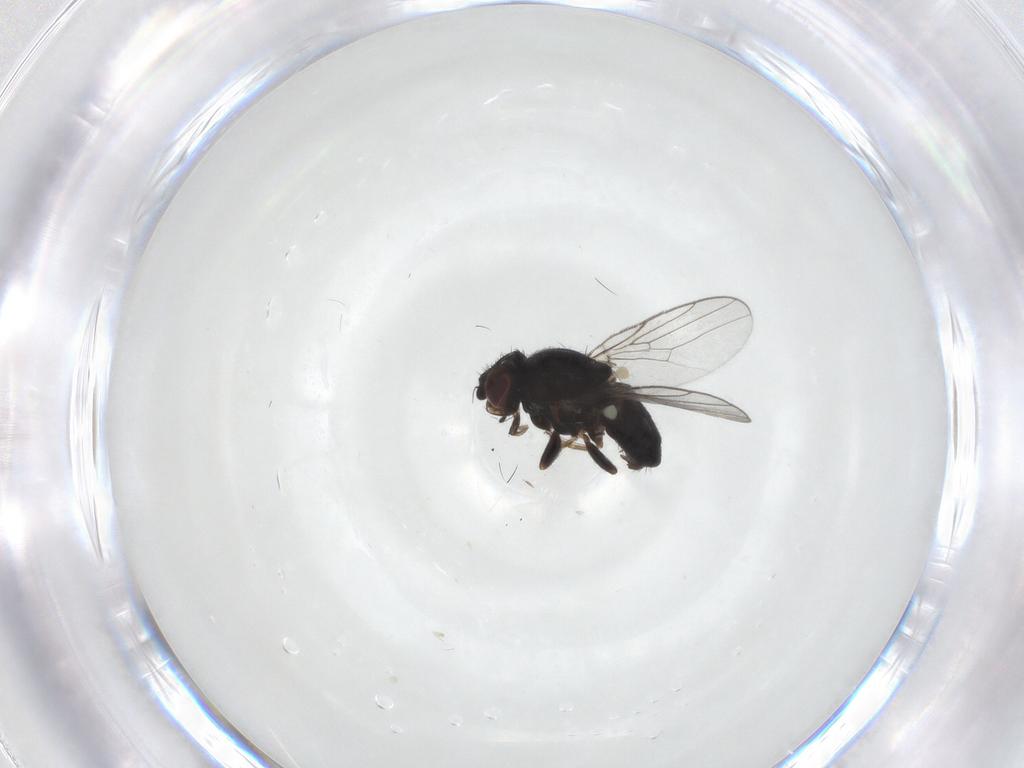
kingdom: Animalia
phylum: Arthropoda
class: Insecta
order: Diptera
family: Chloropidae
